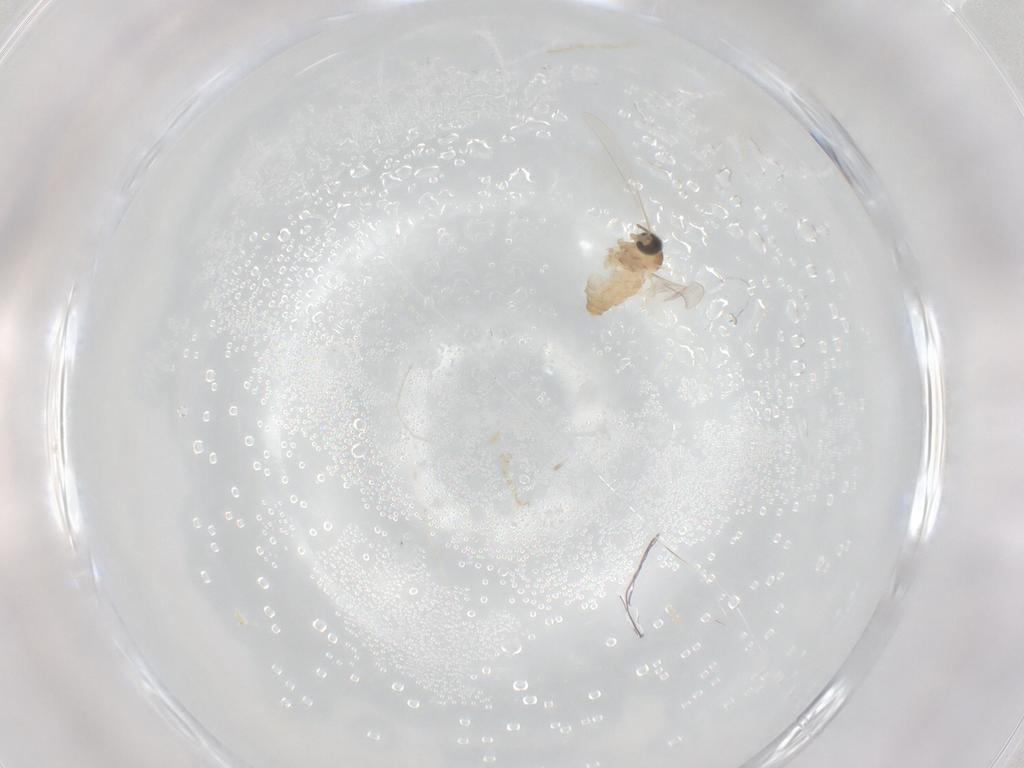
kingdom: Animalia
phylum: Arthropoda
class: Insecta
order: Diptera
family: Cecidomyiidae
